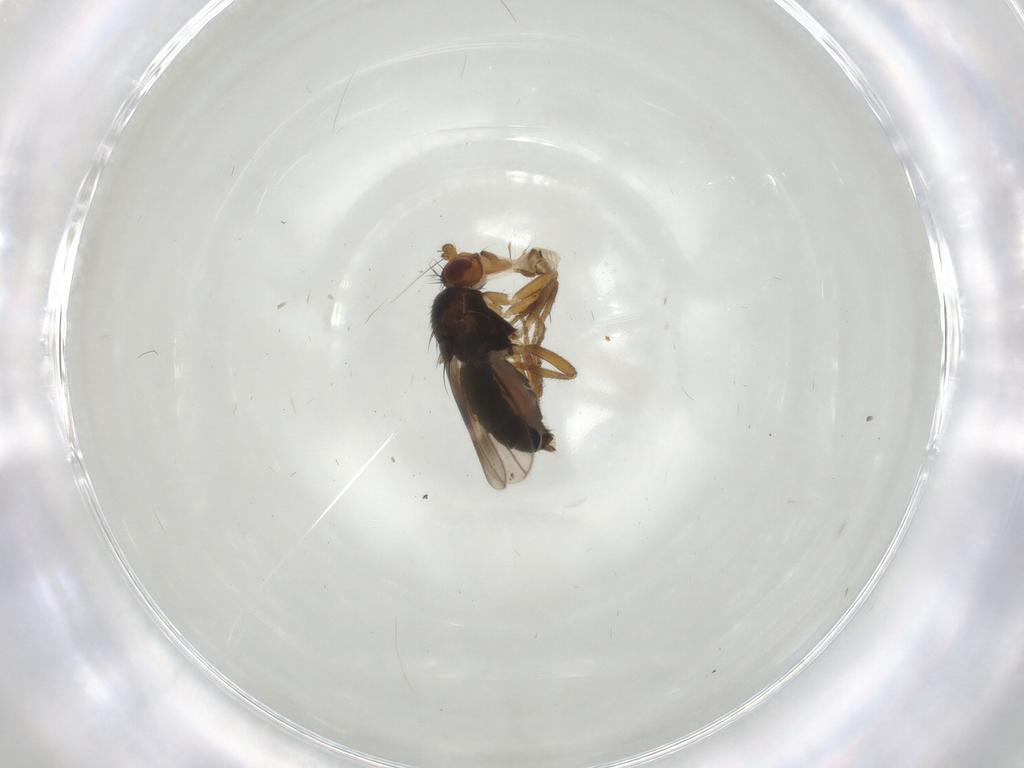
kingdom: Animalia
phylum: Arthropoda
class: Insecta
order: Diptera
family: Sphaeroceridae
